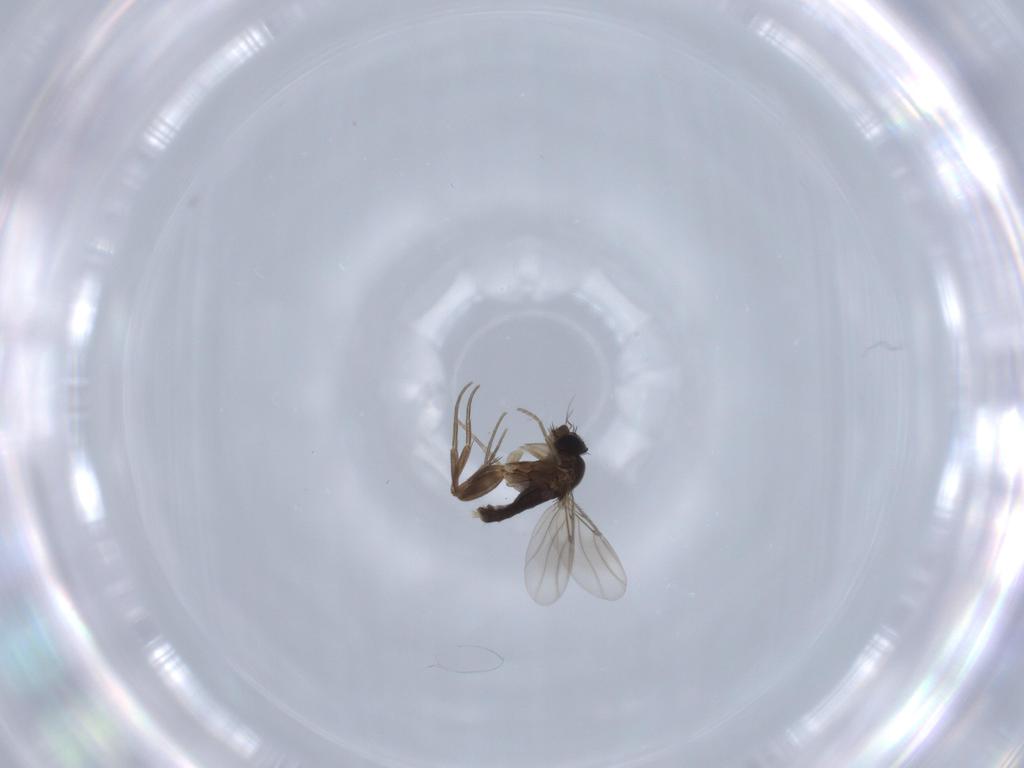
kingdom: Animalia
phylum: Arthropoda
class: Insecta
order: Diptera
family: Phoridae
